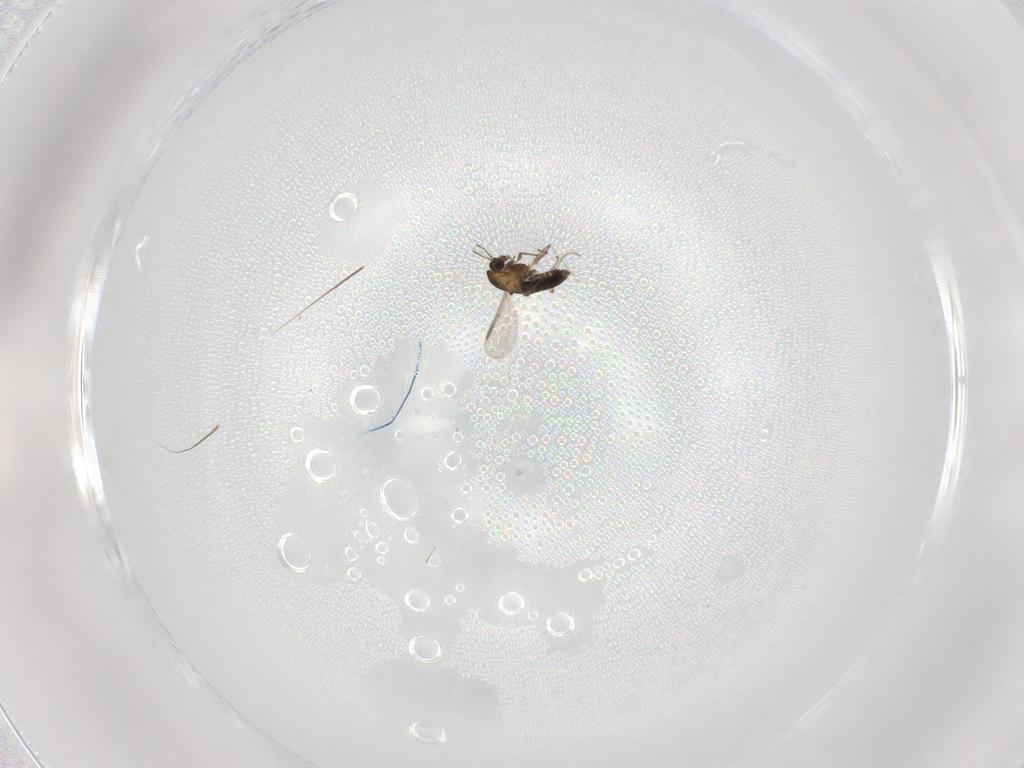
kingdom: Animalia
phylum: Arthropoda
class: Insecta
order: Diptera
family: Chironomidae
